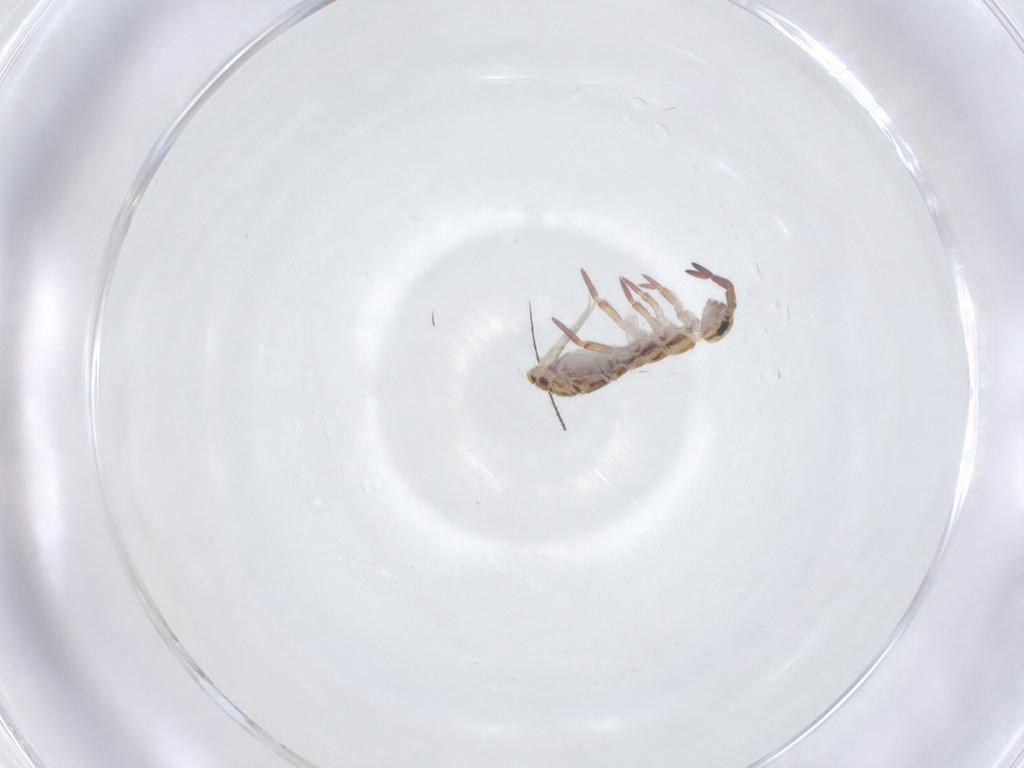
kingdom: Animalia
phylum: Arthropoda
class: Collembola
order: Entomobryomorpha
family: Isotomidae
